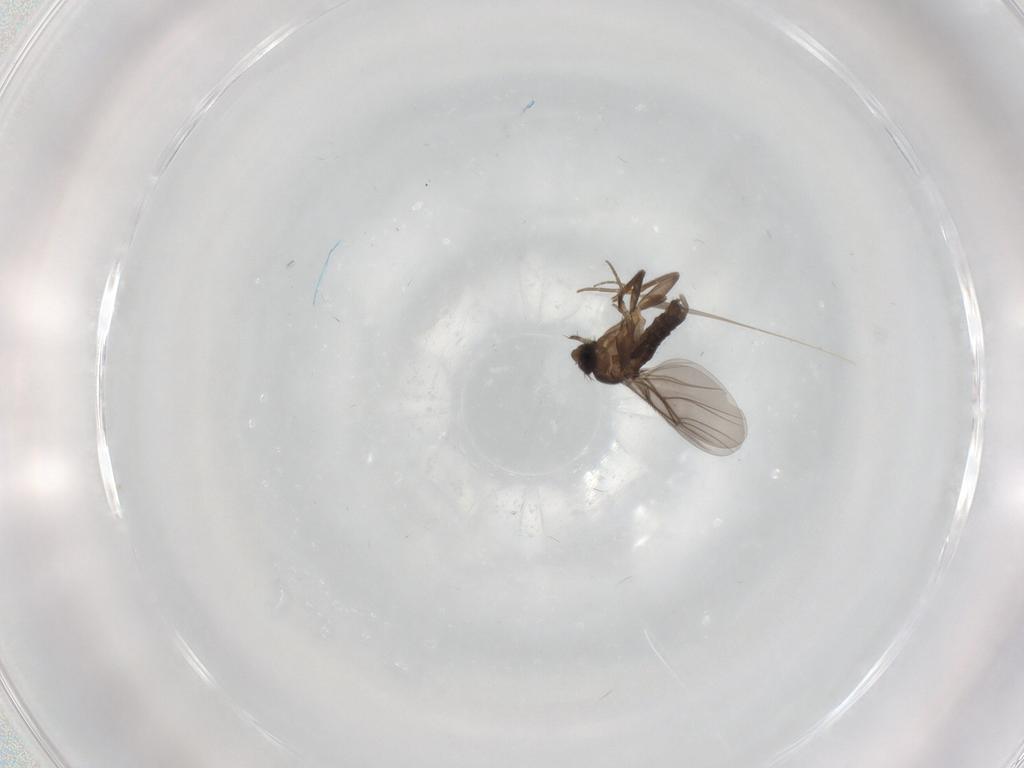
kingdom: Animalia
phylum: Arthropoda
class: Insecta
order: Diptera
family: Phoridae
